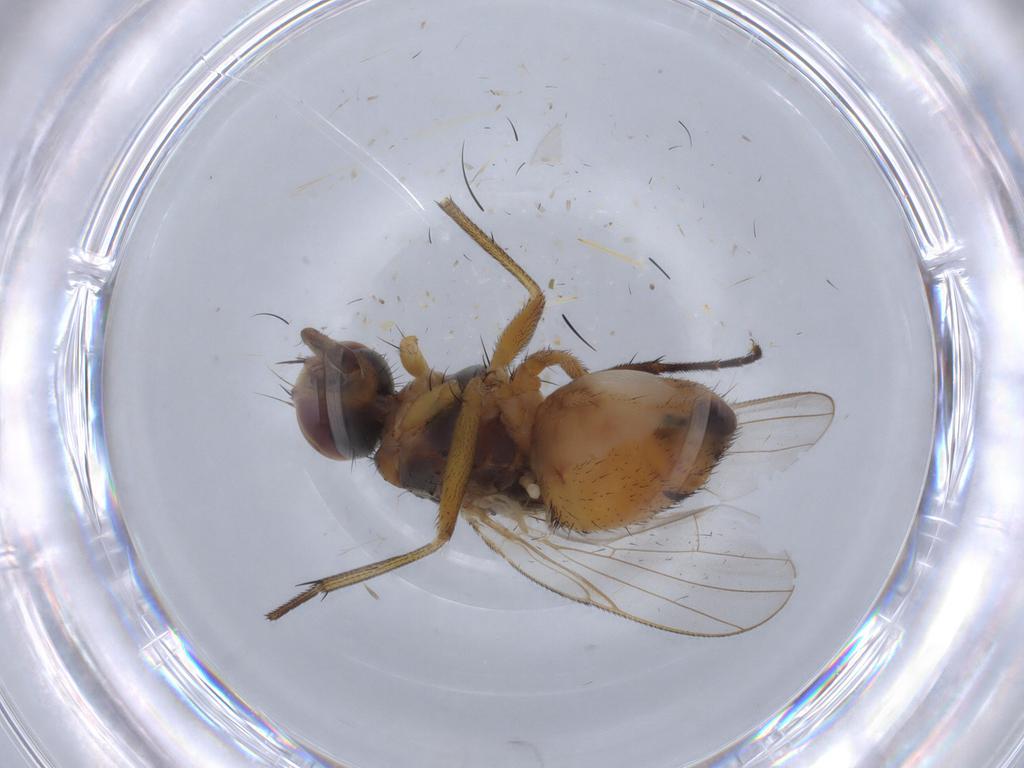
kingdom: Animalia
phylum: Arthropoda
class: Insecta
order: Diptera
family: Muscidae
